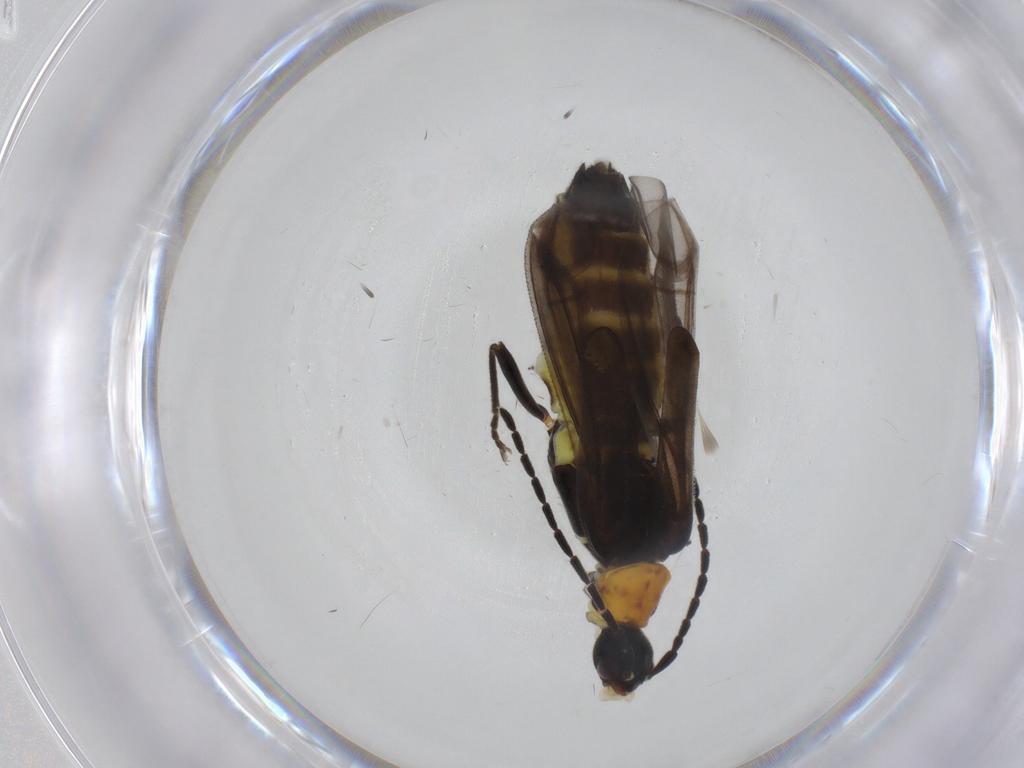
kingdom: Animalia
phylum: Arthropoda
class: Insecta
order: Coleoptera
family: Cantharidae
